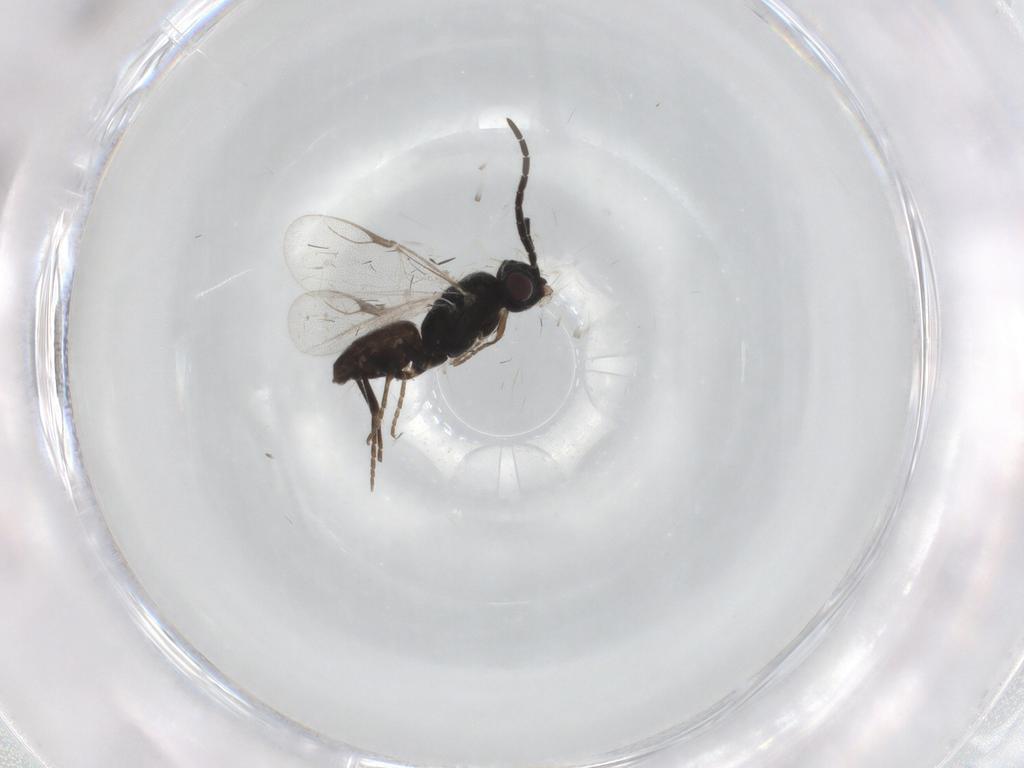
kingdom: Animalia
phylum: Arthropoda
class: Insecta
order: Hymenoptera
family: Dryinidae
